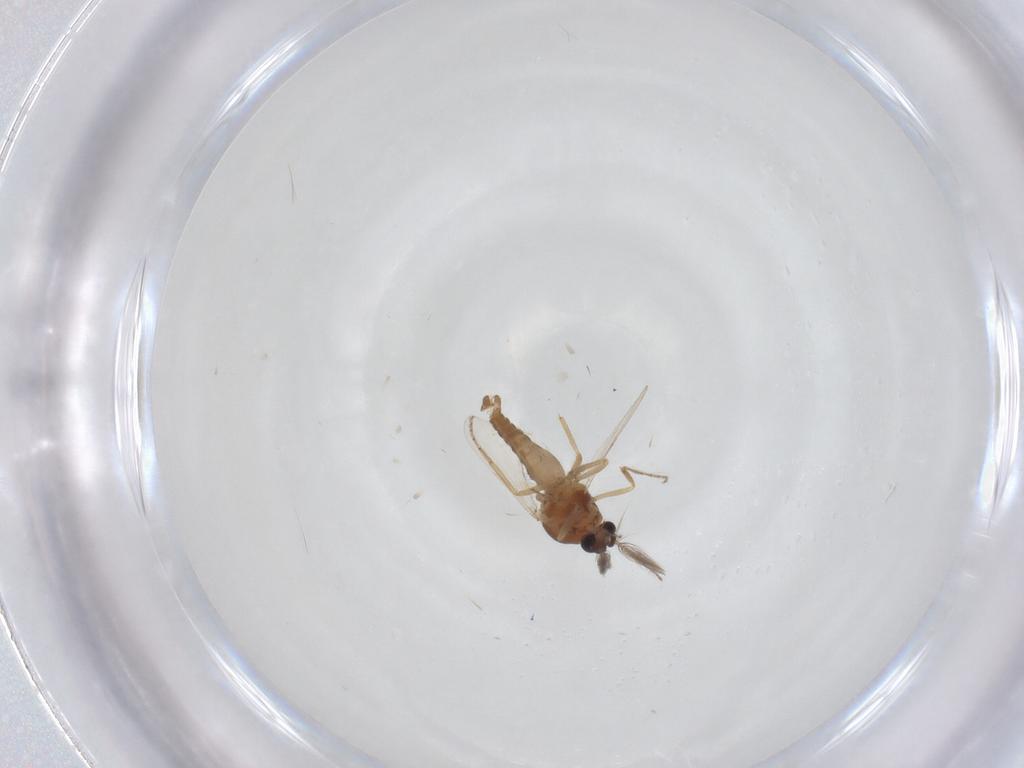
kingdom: Animalia
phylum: Arthropoda
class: Insecta
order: Diptera
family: Ceratopogonidae
